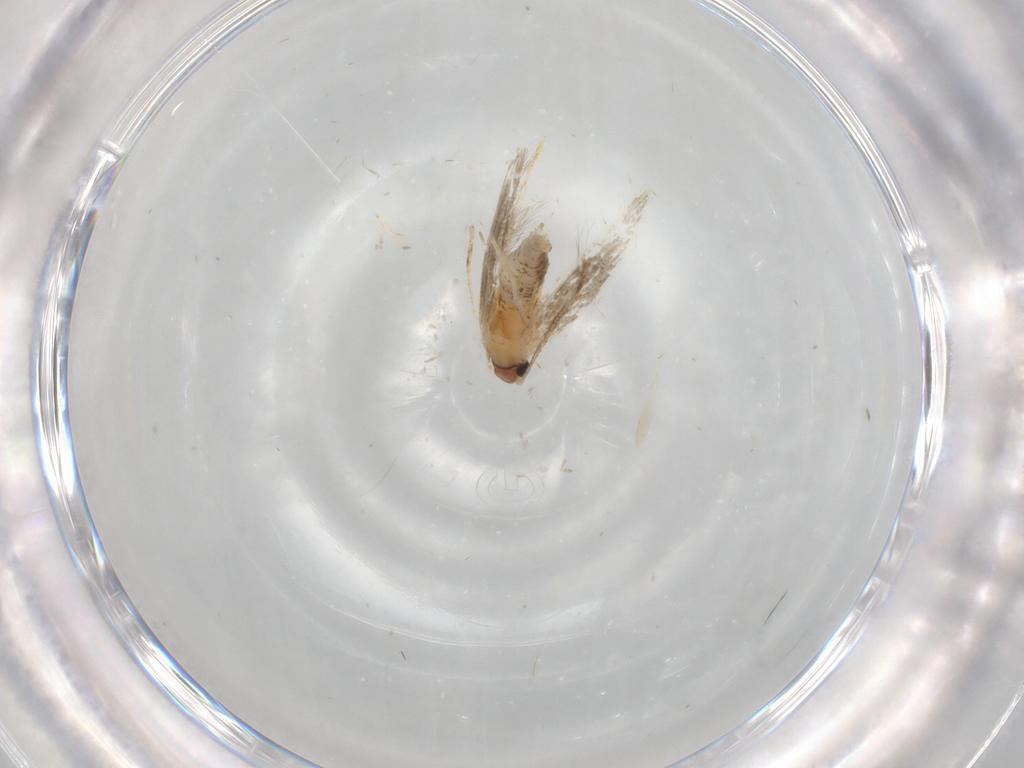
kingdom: Animalia
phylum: Arthropoda
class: Insecta
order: Lepidoptera
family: Tineidae
